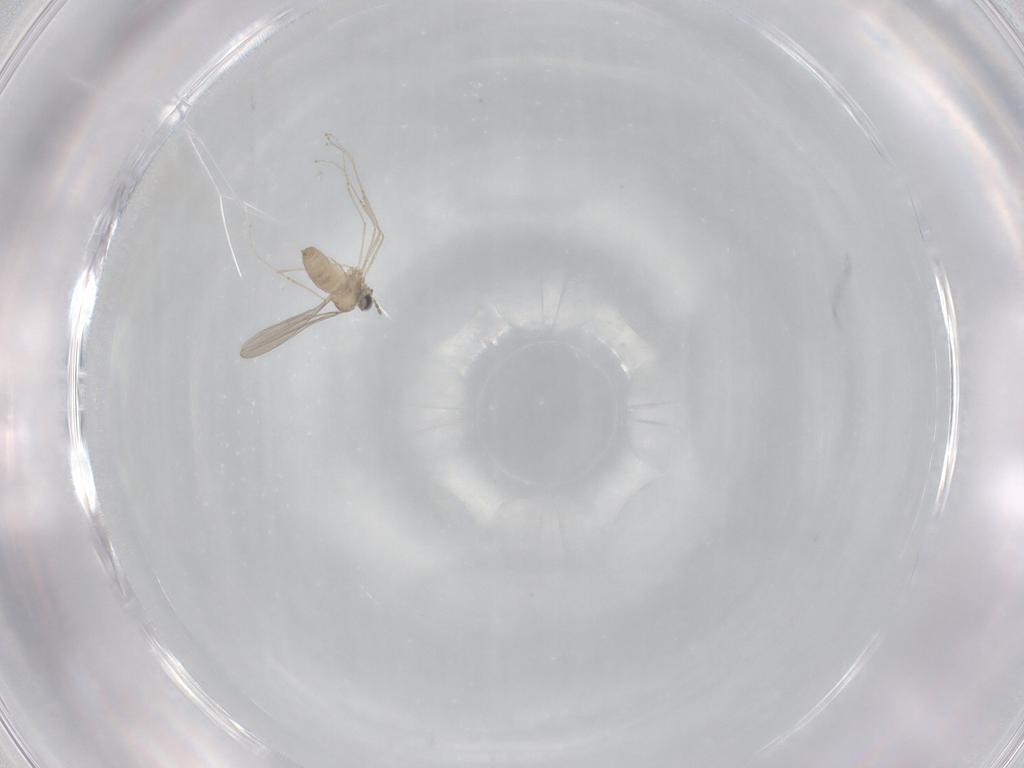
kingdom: Animalia
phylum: Arthropoda
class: Insecta
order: Diptera
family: Cecidomyiidae
